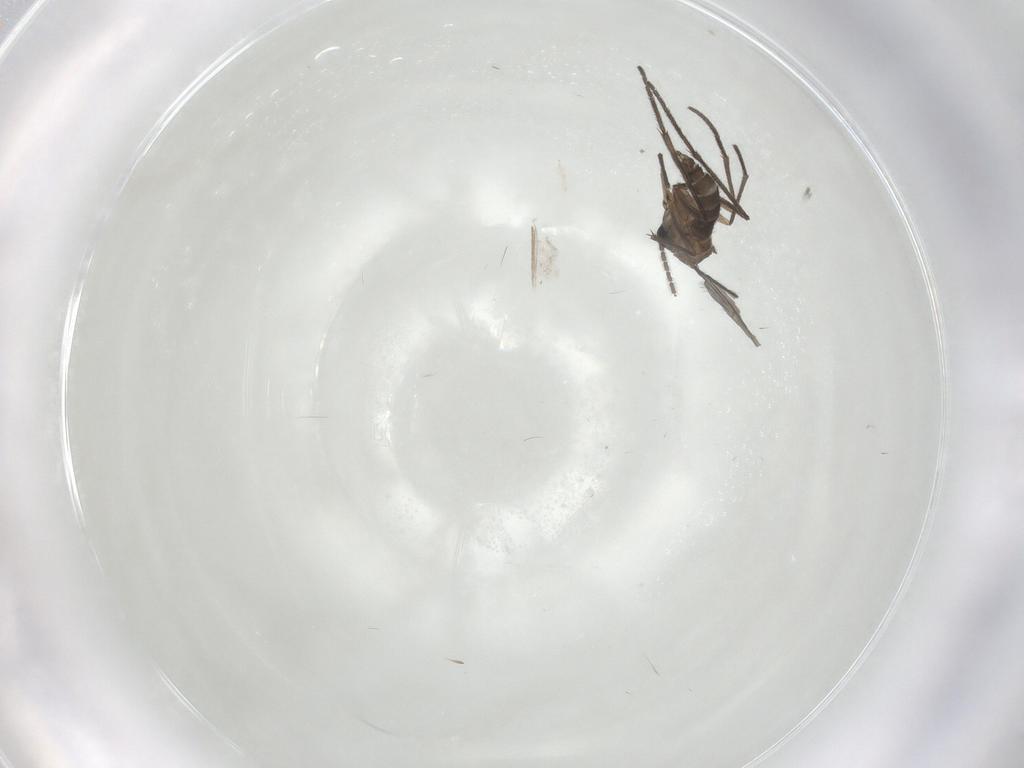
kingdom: Animalia
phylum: Arthropoda
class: Insecta
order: Diptera
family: Sciaridae
